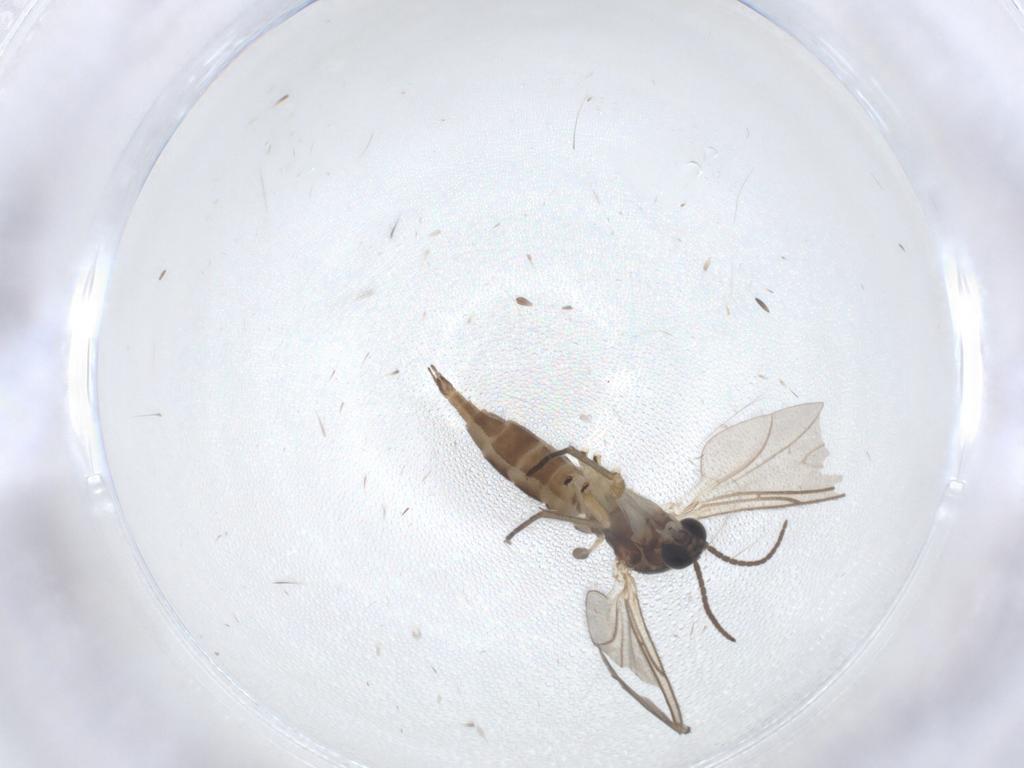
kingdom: Animalia
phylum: Arthropoda
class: Insecta
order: Diptera
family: Sciaridae
